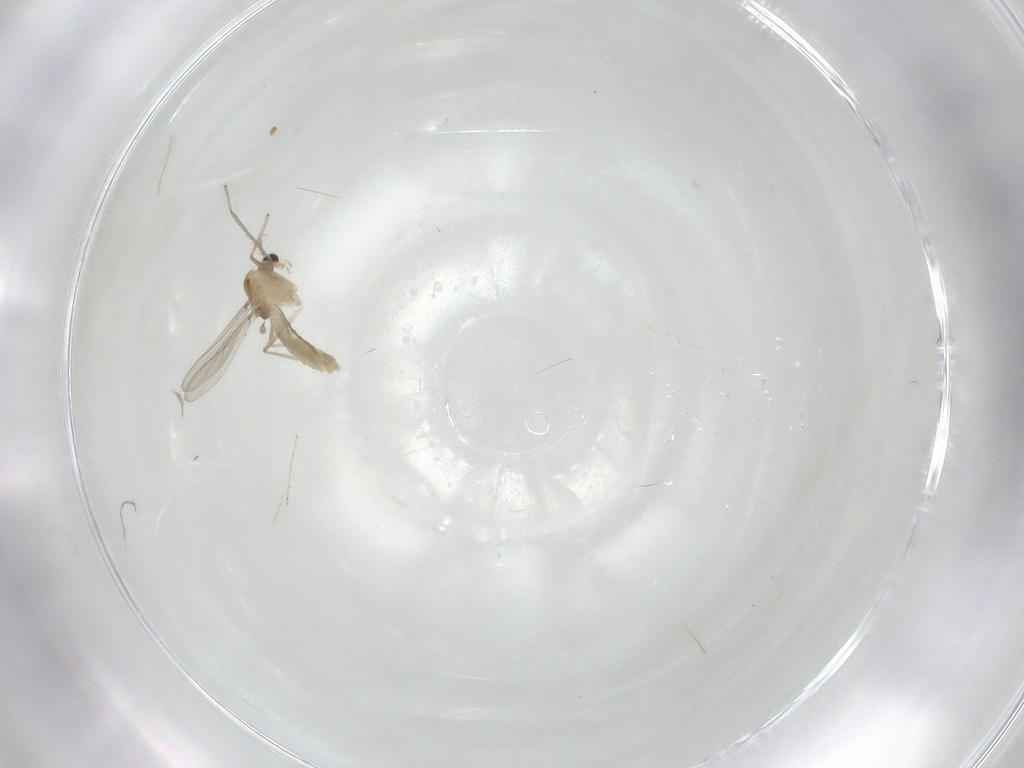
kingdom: Animalia
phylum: Arthropoda
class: Insecta
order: Diptera
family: Cecidomyiidae
